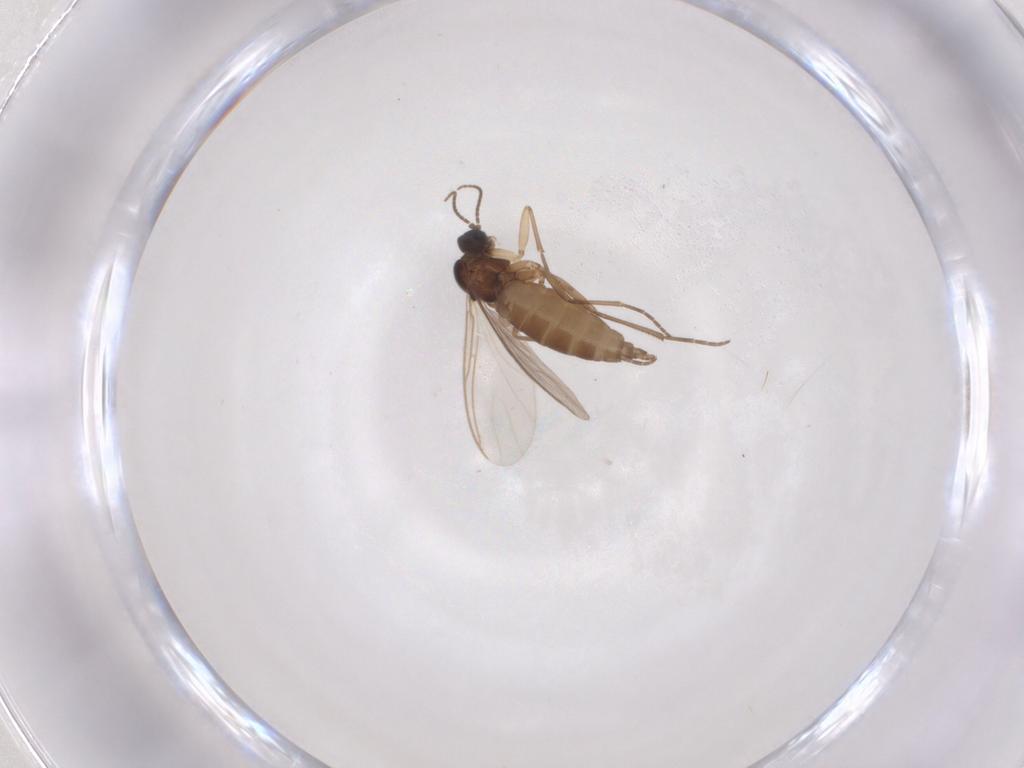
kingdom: Animalia
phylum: Arthropoda
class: Insecta
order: Diptera
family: Sciaridae
